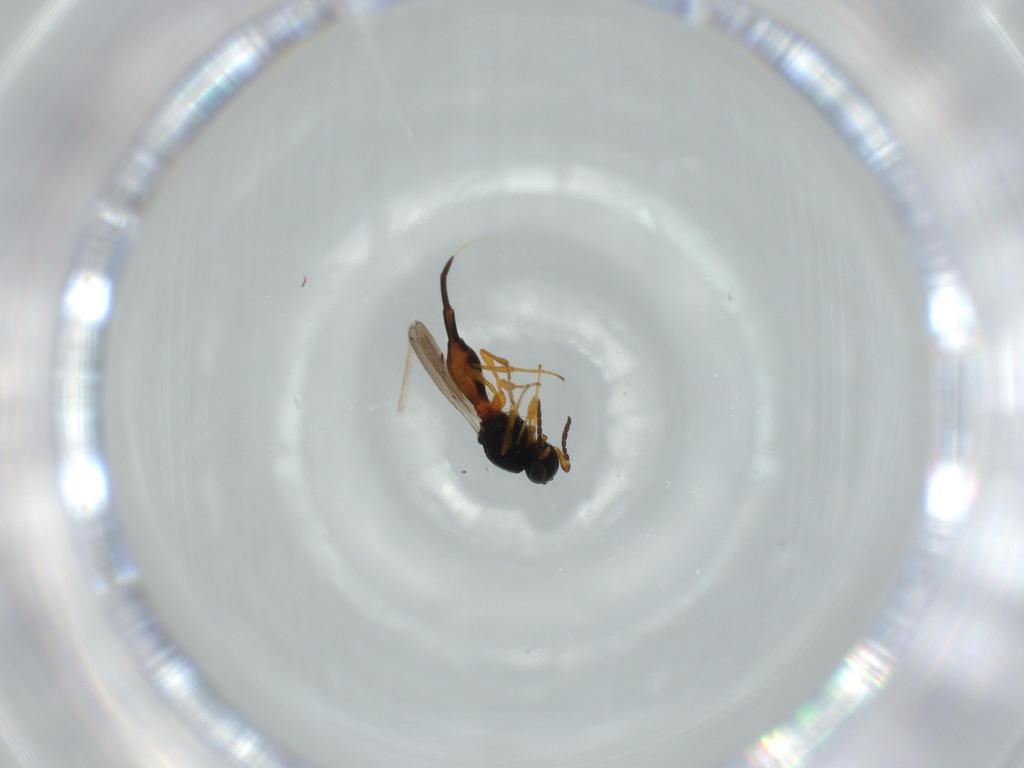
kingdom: Animalia
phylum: Arthropoda
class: Insecta
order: Hymenoptera
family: Platygastridae
